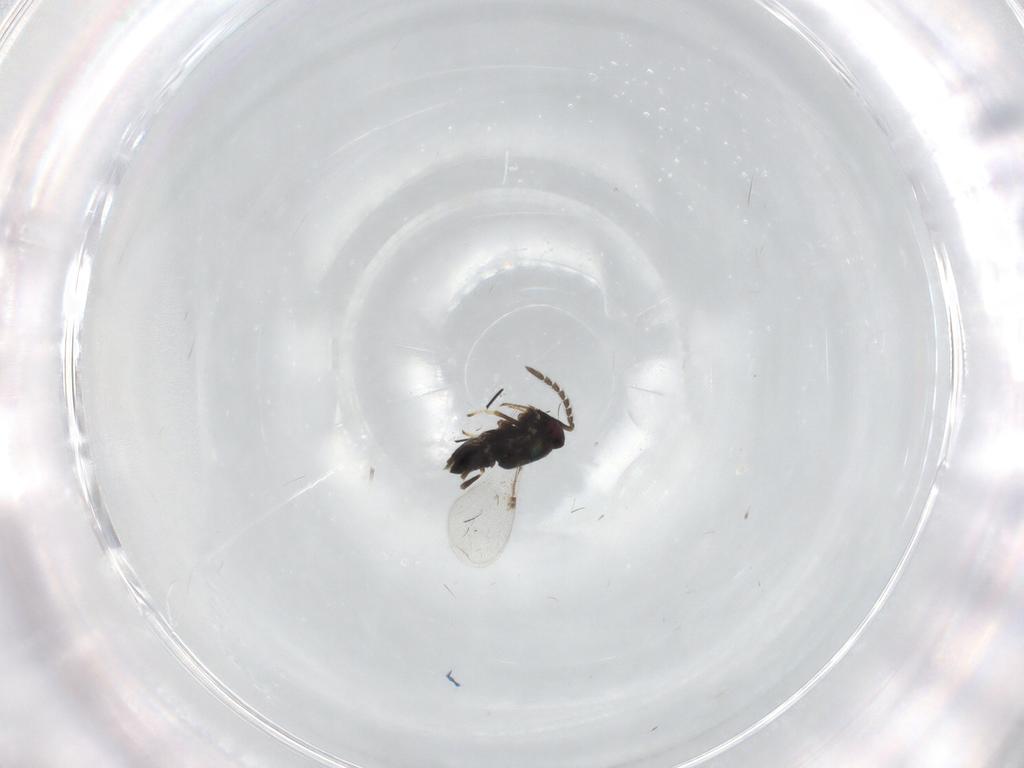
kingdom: Animalia
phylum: Arthropoda
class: Insecta
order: Hymenoptera
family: Encyrtidae
